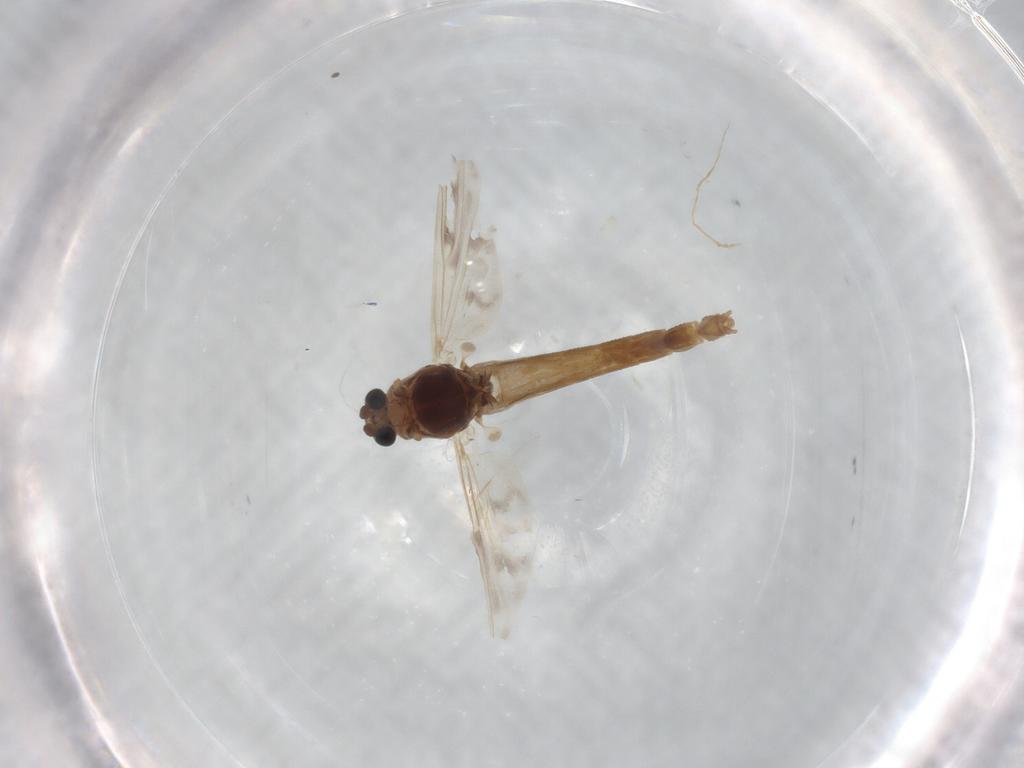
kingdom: Animalia
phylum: Arthropoda
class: Insecta
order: Diptera
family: Chironomidae
